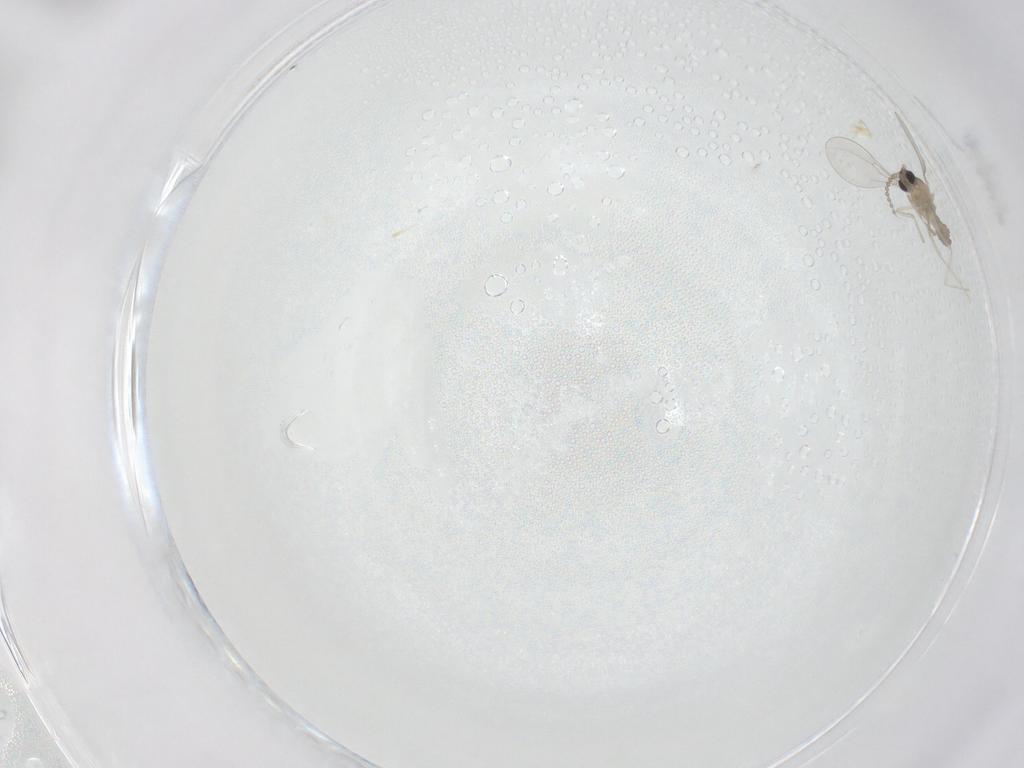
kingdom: Animalia
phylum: Arthropoda
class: Insecta
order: Diptera
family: Cecidomyiidae
